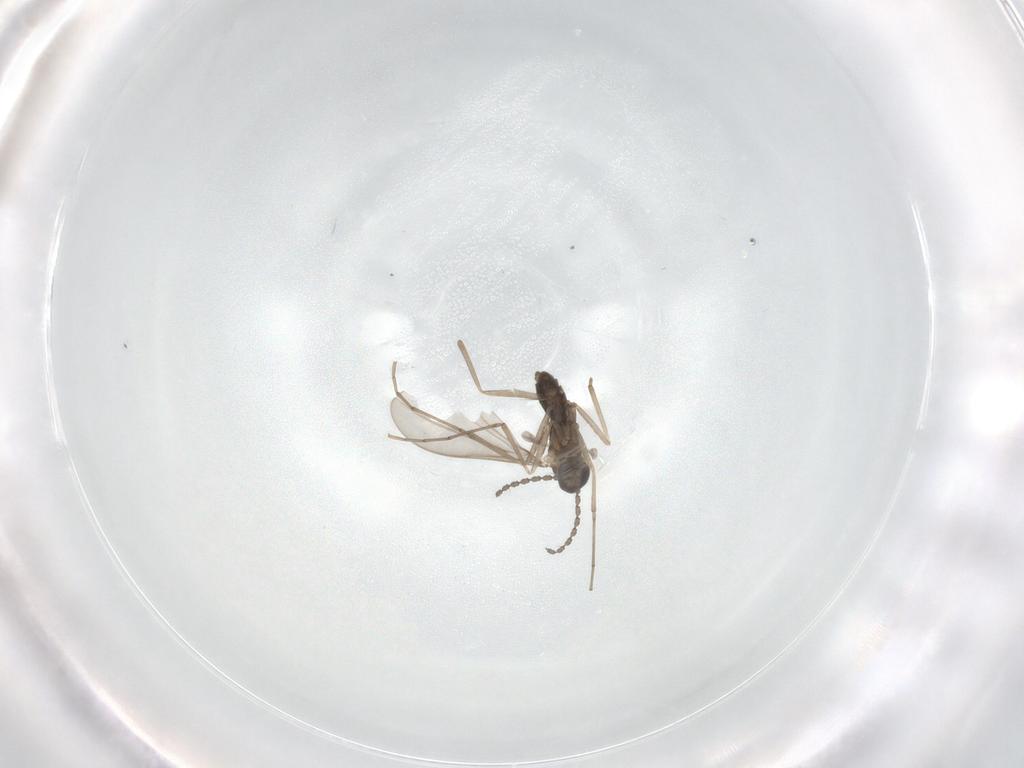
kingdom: Animalia
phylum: Arthropoda
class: Insecta
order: Diptera
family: Cecidomyiidae
